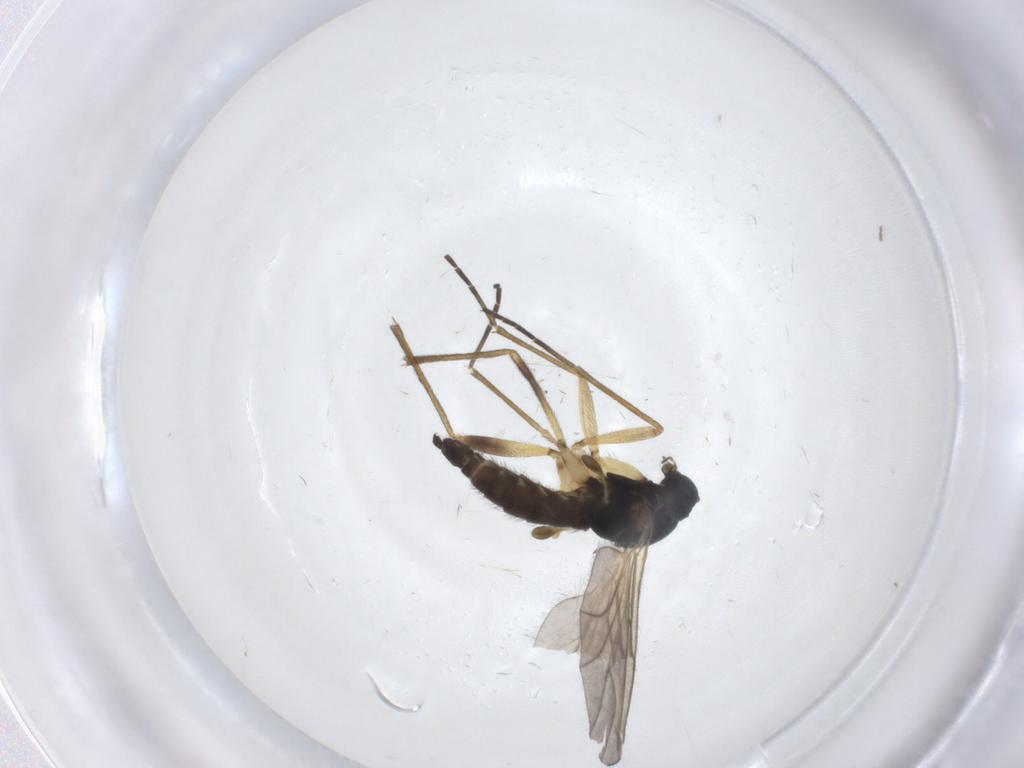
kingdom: Animalia
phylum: Arthropoda
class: Insecta
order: Diptera
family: Sciaridae
